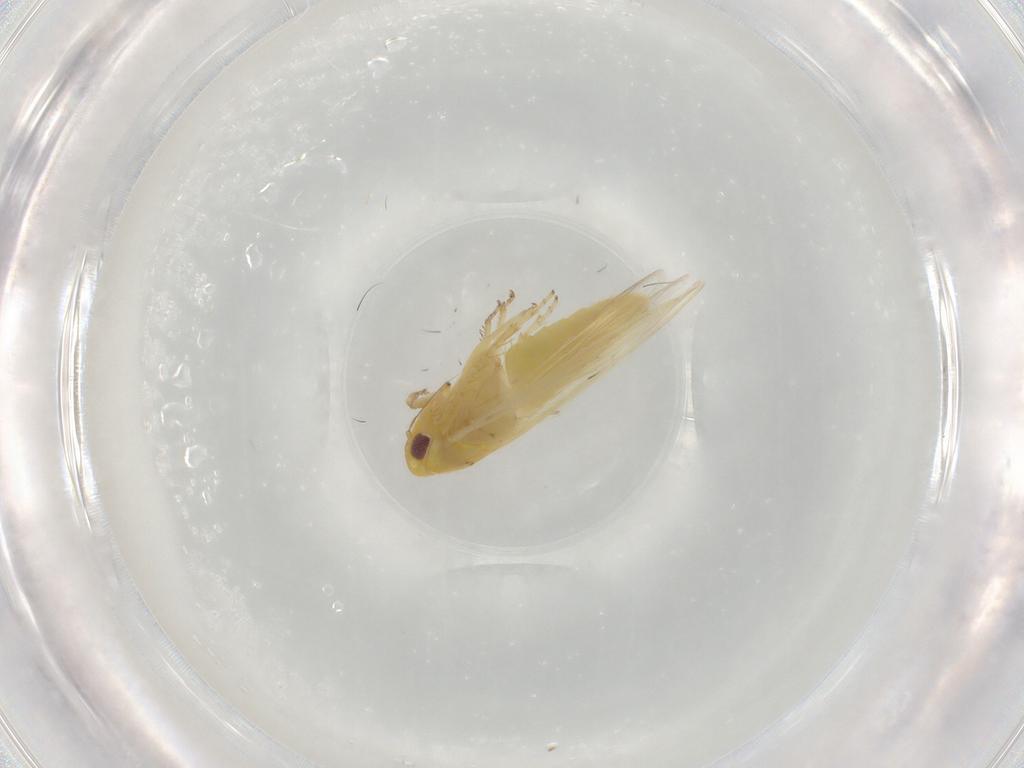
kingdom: Animalia
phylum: Arthropoda
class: Insecta
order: Hemiptera
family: Cicadellidae
